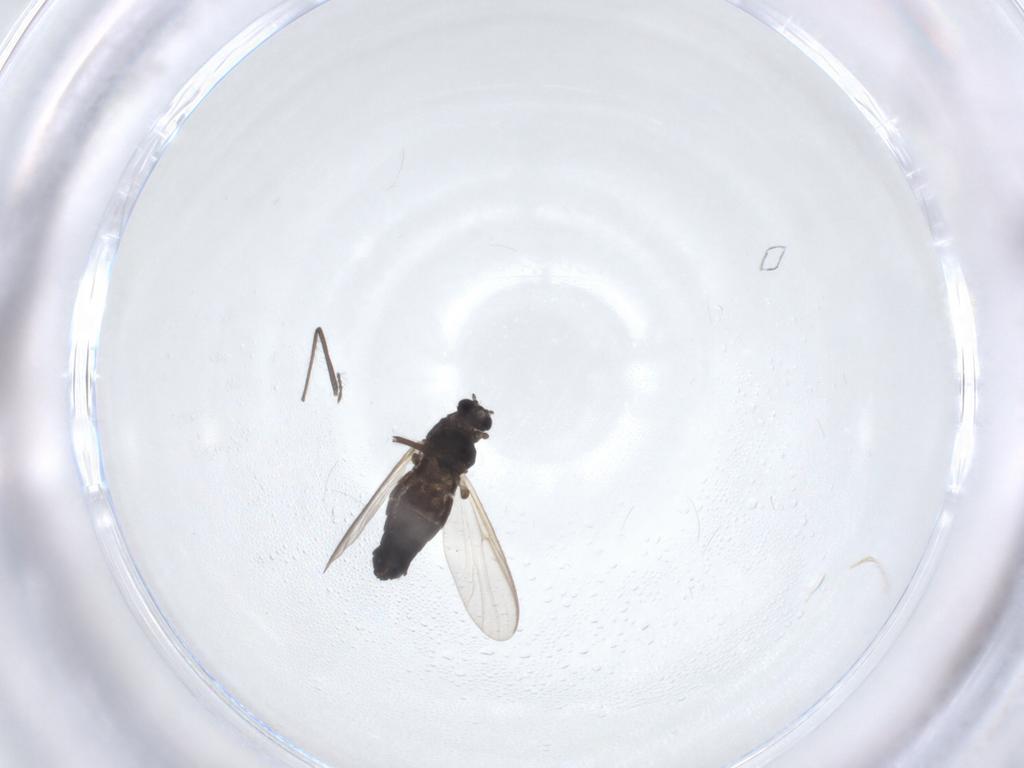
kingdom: Animalia
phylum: Arthropoda
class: Insecta
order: Diptera
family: Chironomidae
